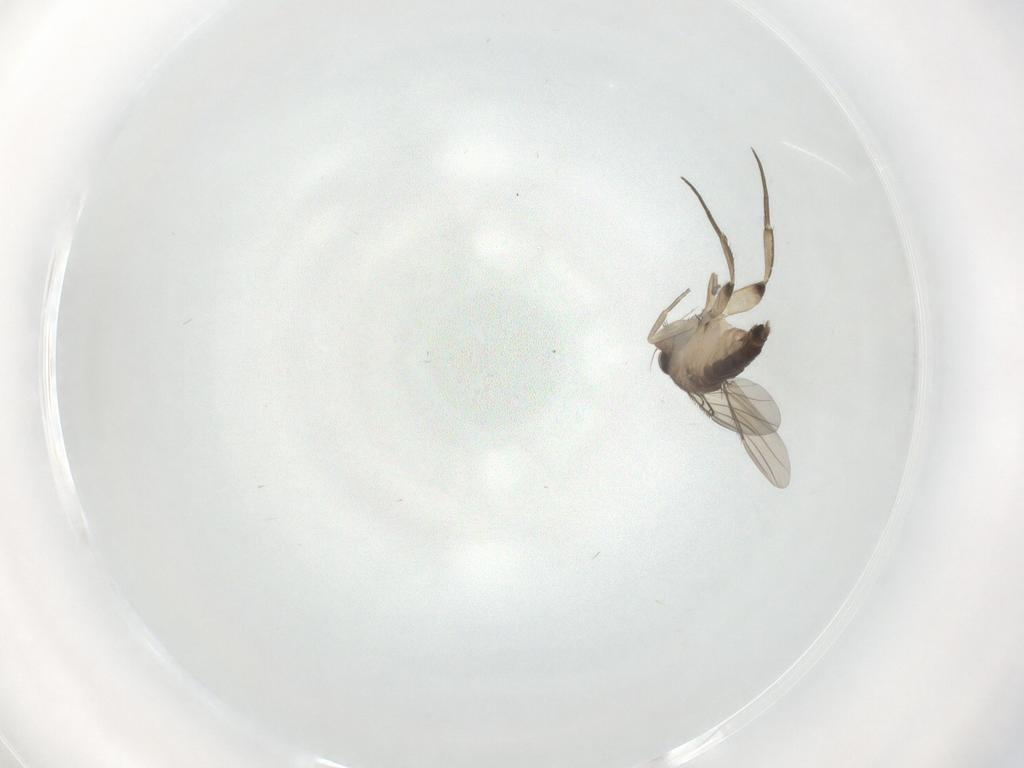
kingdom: Animalia
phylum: Arthropoda
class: Insecta
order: Diptera
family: Phoridae
